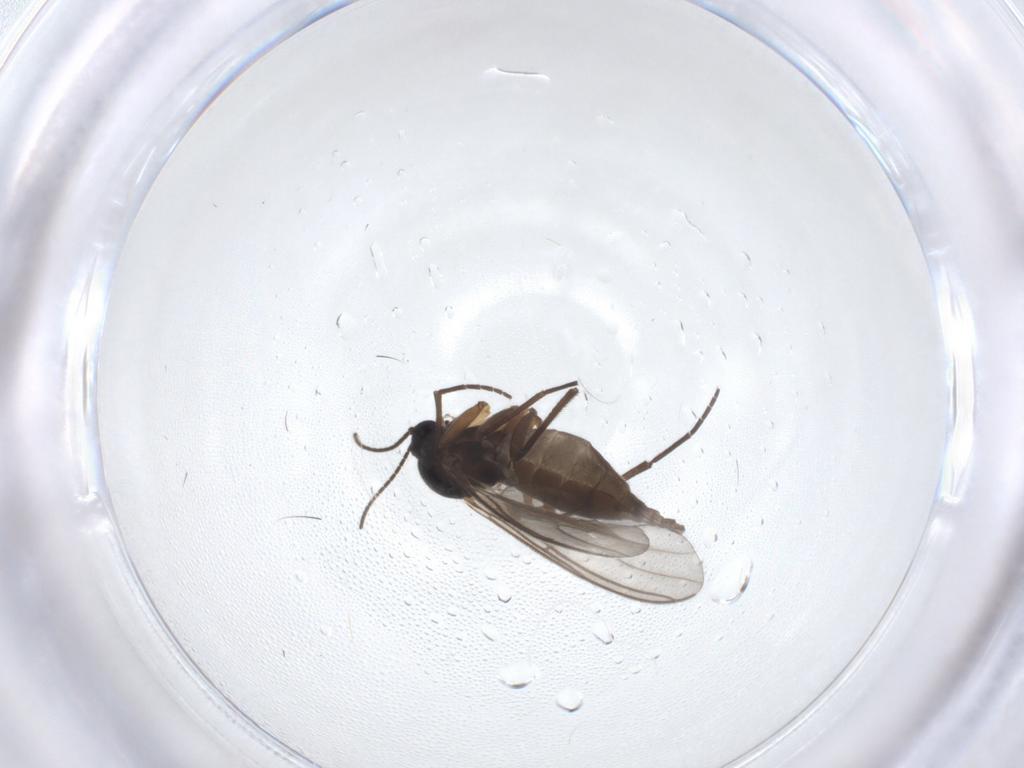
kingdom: Animalia
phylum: Arthropoda
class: Insecta
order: Diptera
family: Sciaridae
